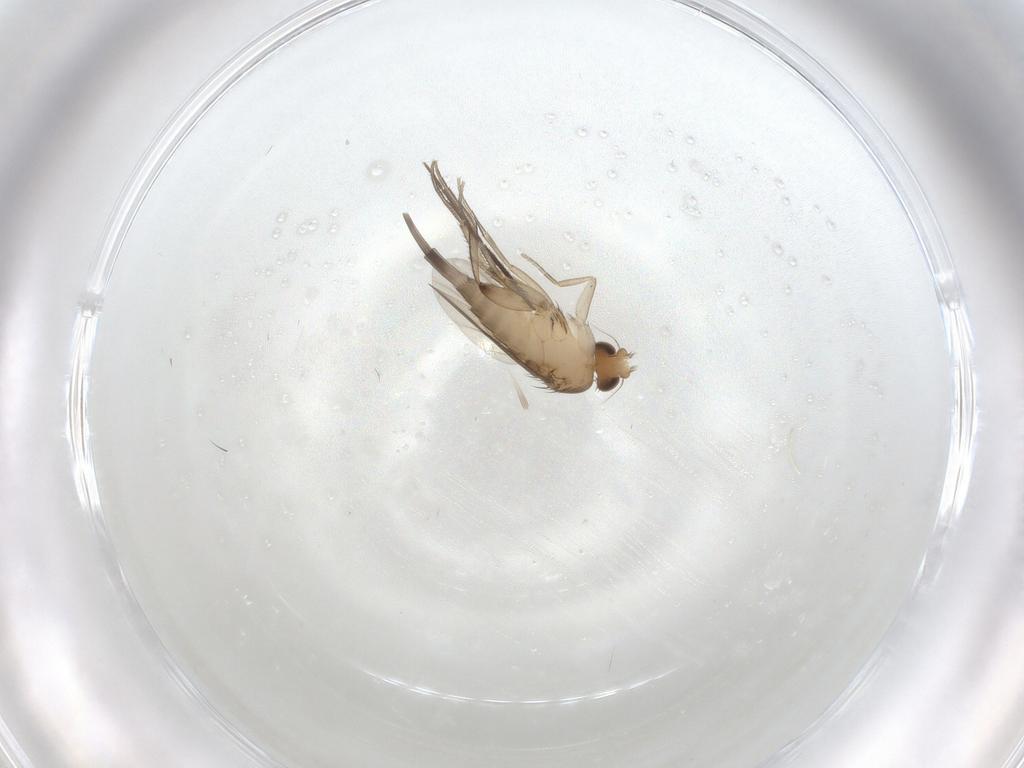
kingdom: Animalia
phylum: Arthropoda
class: Insecta
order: Diptera
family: Chironomidae
